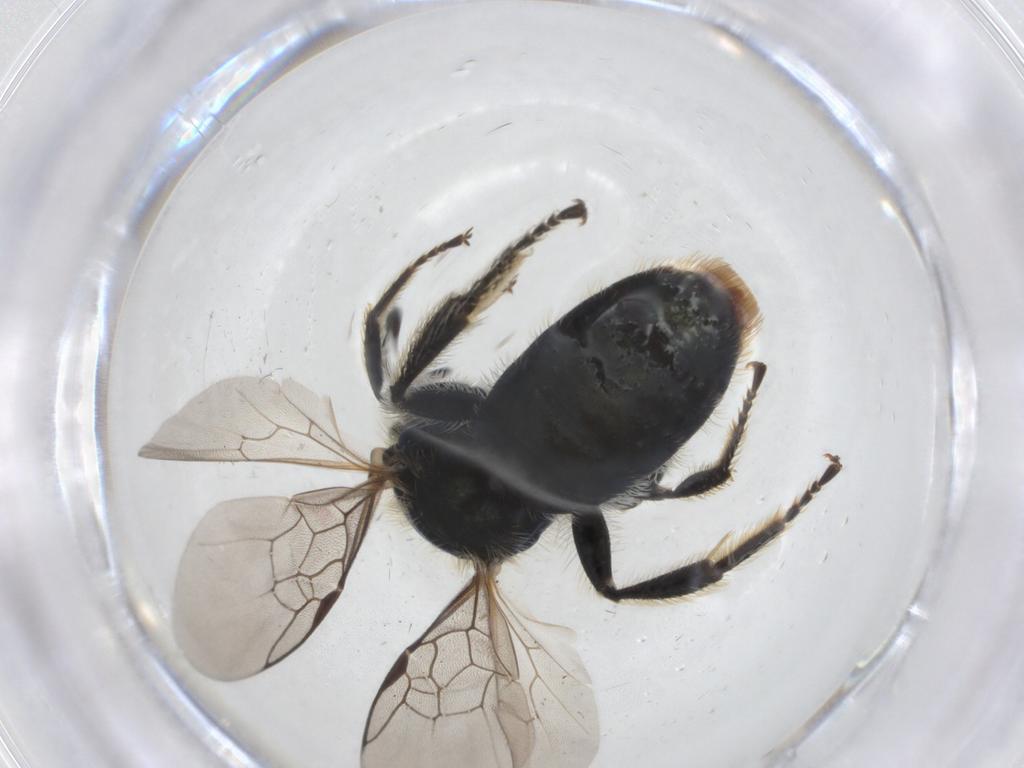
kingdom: Animalia
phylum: Arthropoda
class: Insecta
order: Hymenoptera
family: Halictidae
